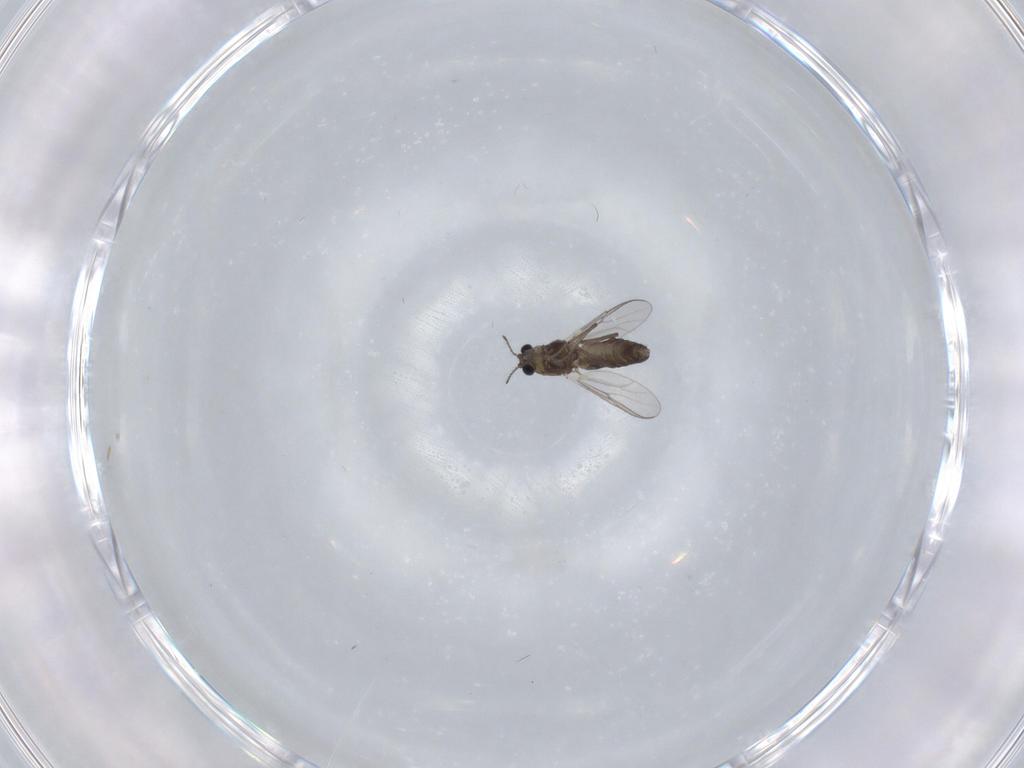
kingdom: Animalia
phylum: Arthropoda
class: Insecta
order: Diptera
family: Chironomidae
